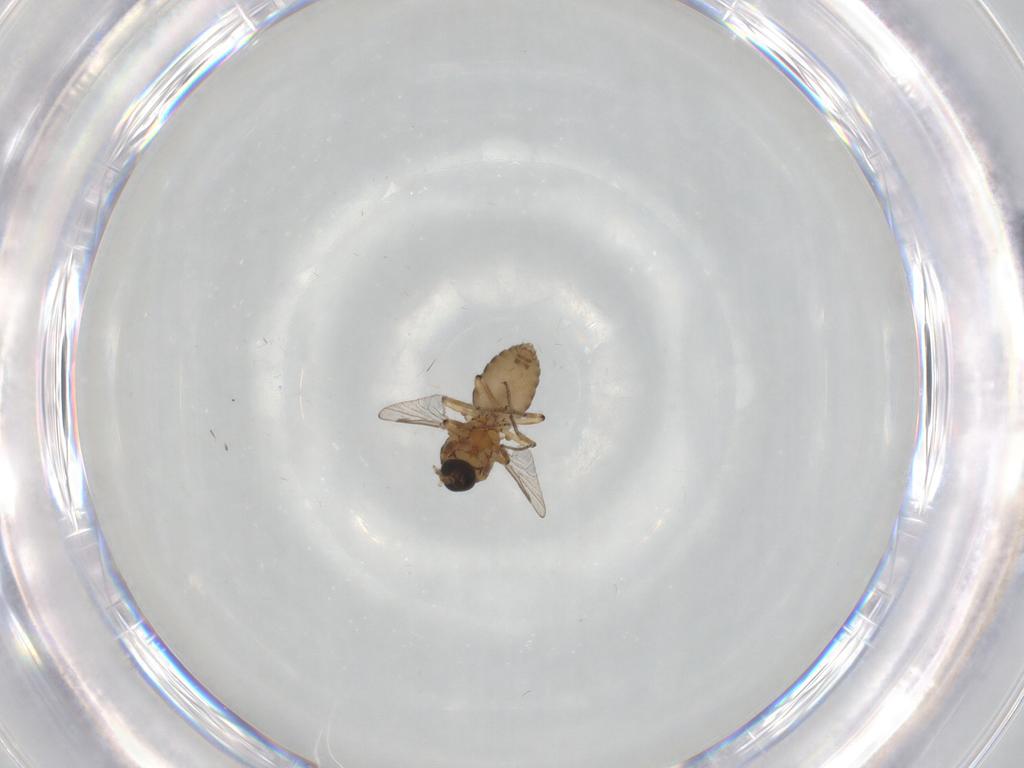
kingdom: Animalia
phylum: Arthropoda
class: Insecta
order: Diptera
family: Ceratopogonidae
